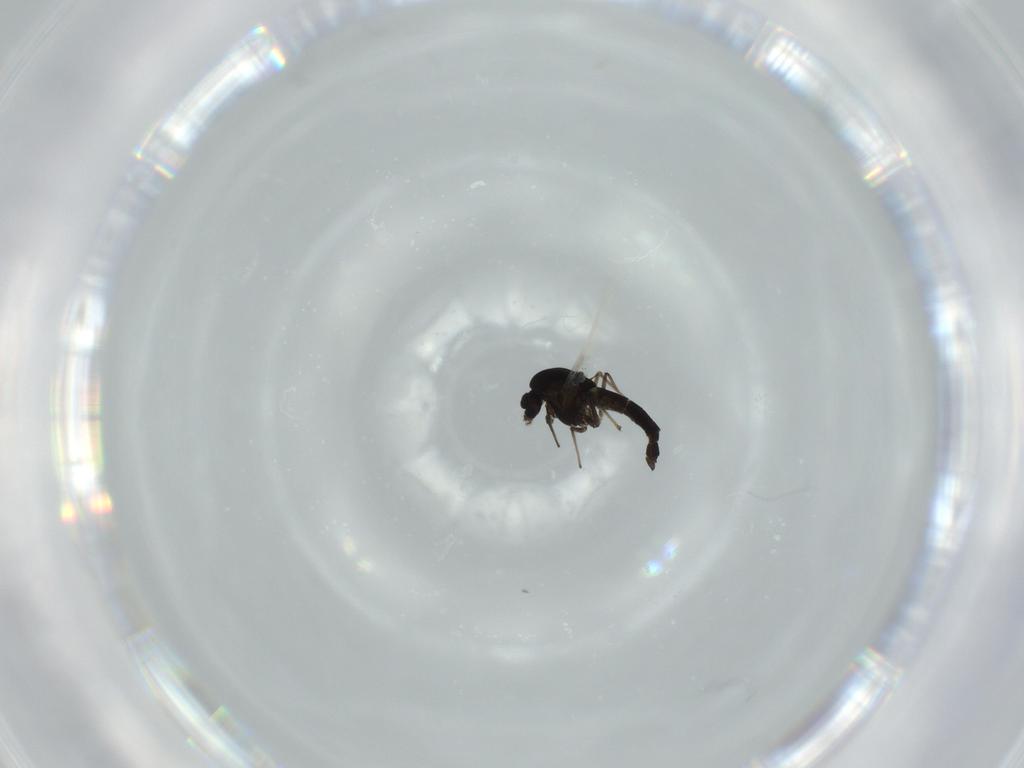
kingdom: Animalia
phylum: Arthropoda
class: Insecta
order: Diptera
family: Chironomidae
